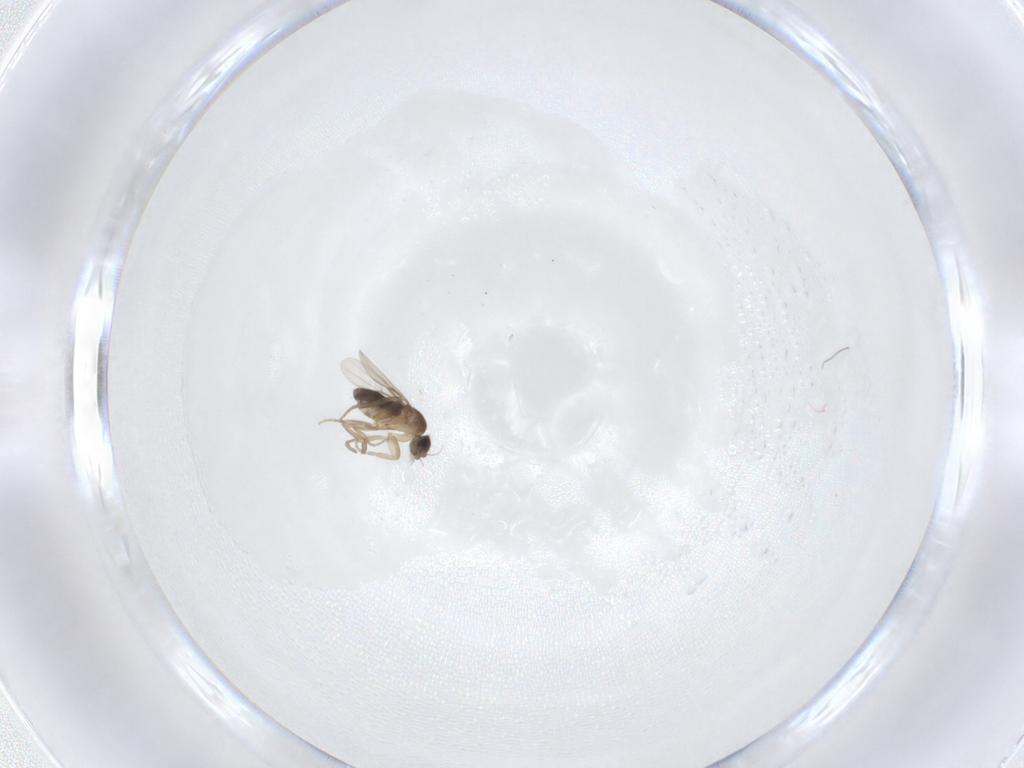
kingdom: Animalia
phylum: Arthropoda
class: Insecta
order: Diptera
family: Phoridae
